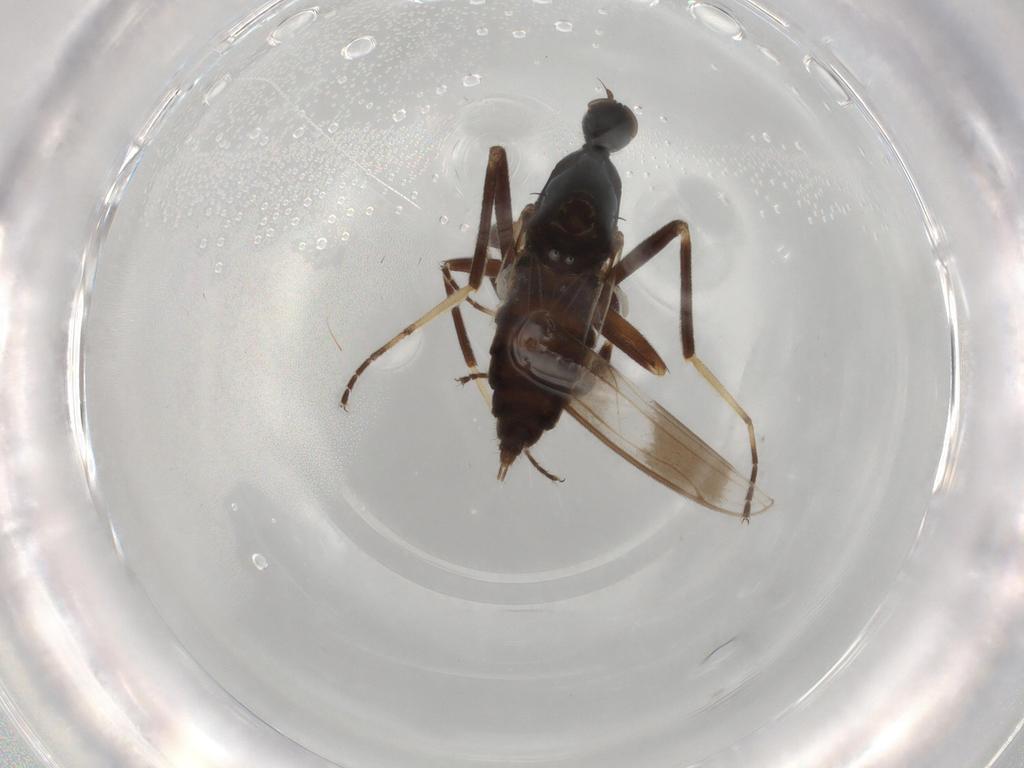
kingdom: Animalia
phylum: Arthropoda
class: Insecta
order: Diptera
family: Hybotidae
